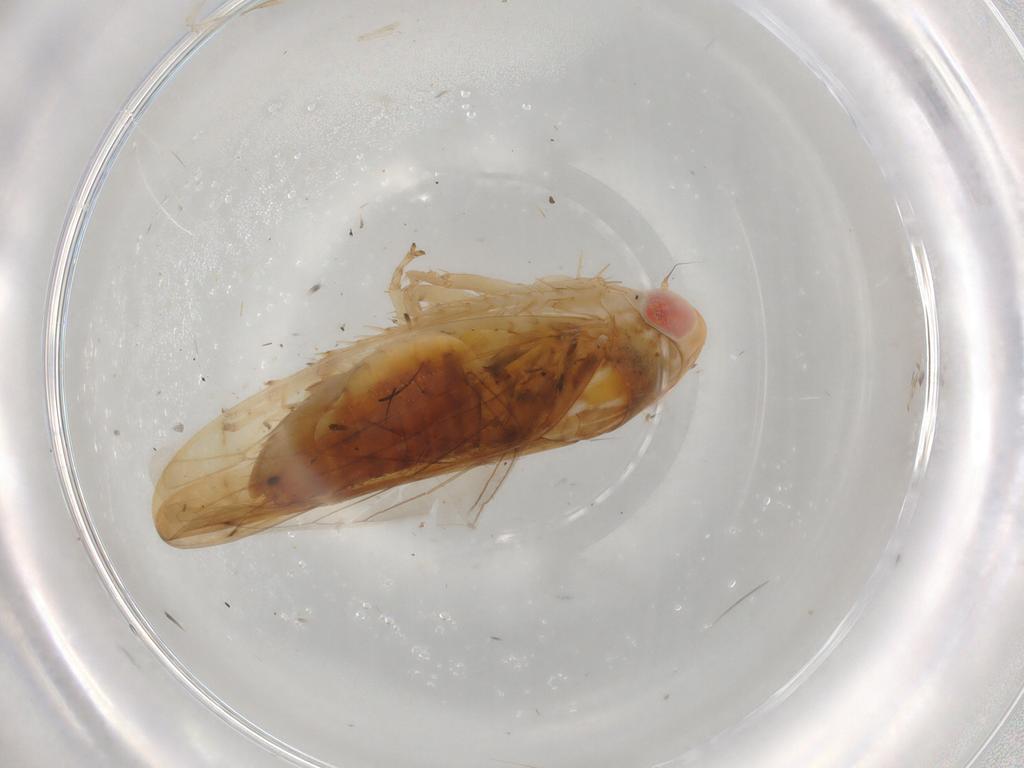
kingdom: Animalia
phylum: Arthropoda
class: Insecta
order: Hemiptera
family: Cicadellidae
